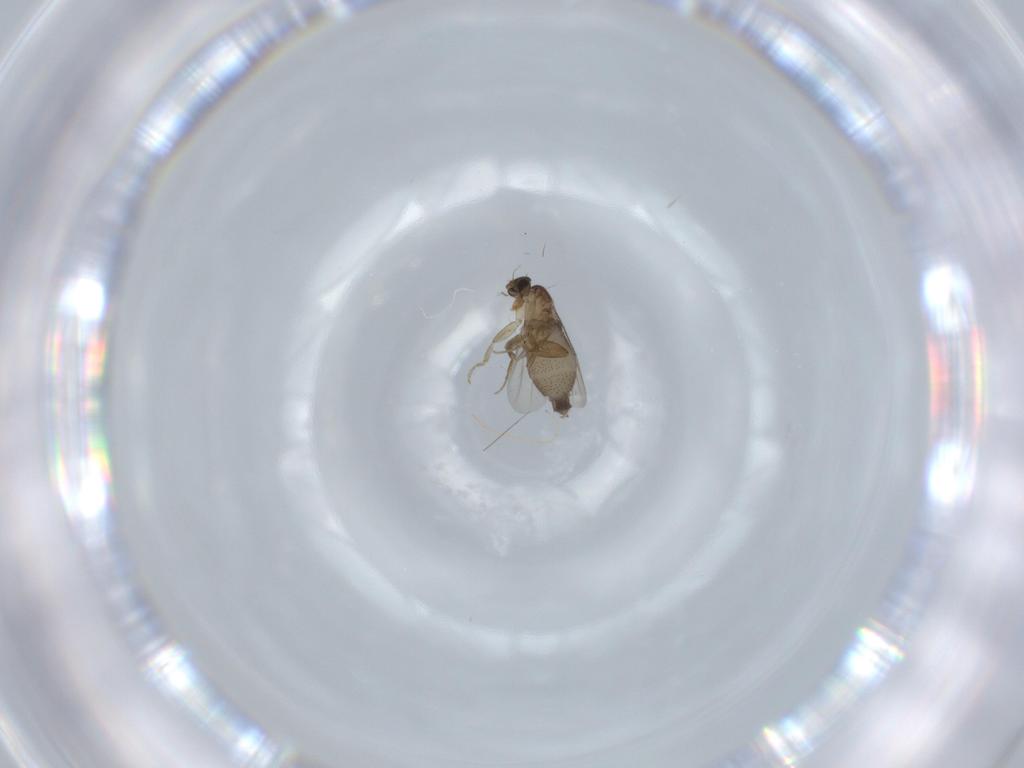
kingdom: Animalia
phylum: Arthropoda
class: Insecta
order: Diptera
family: Phoridae
